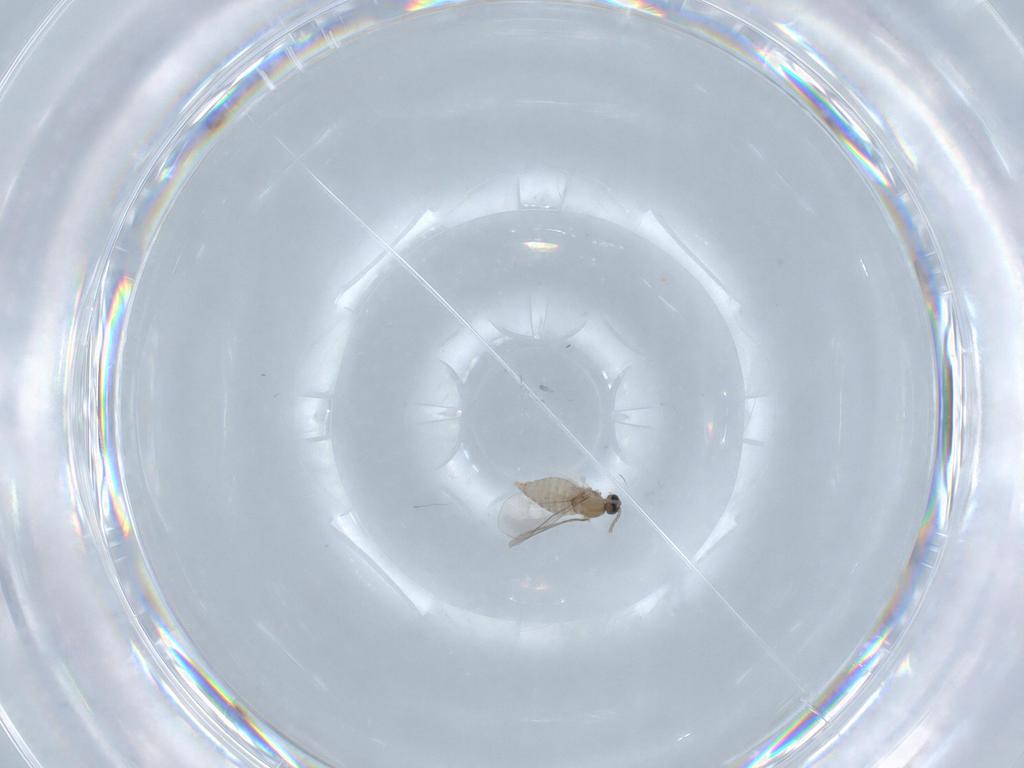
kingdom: Animalia
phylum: Arthropoda
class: Insecta
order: Diptera
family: Cecidomyiidae
